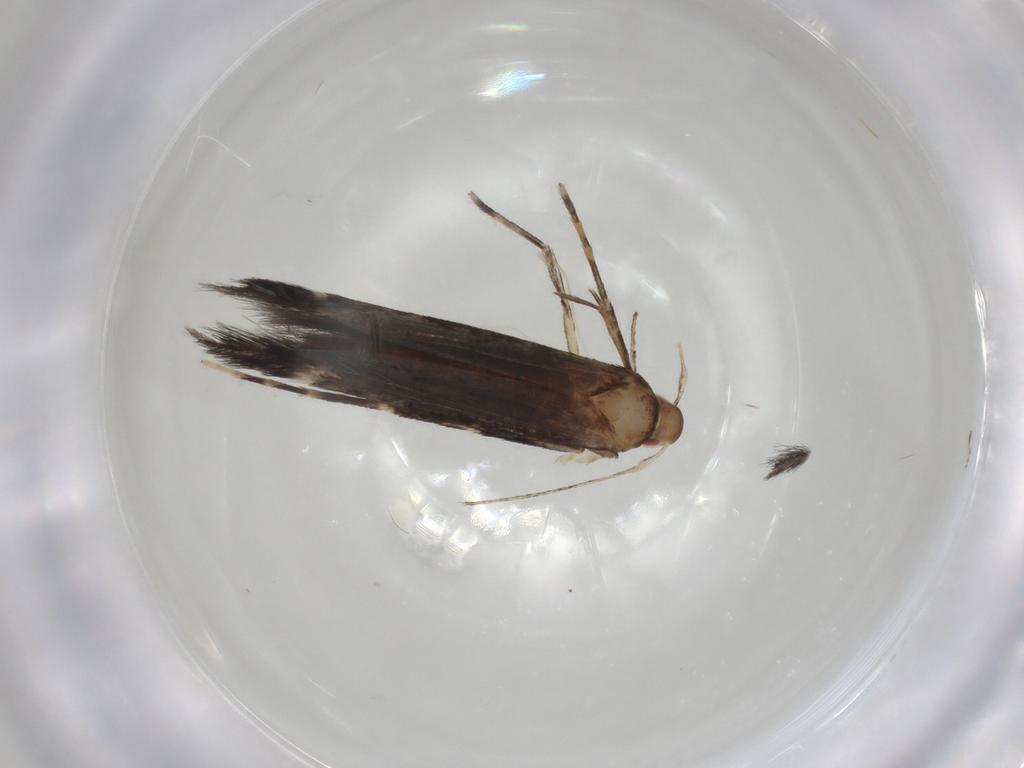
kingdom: Animalia
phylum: Arthropoda
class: Insecta
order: Lepidoptera
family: Cosmopterigidae
